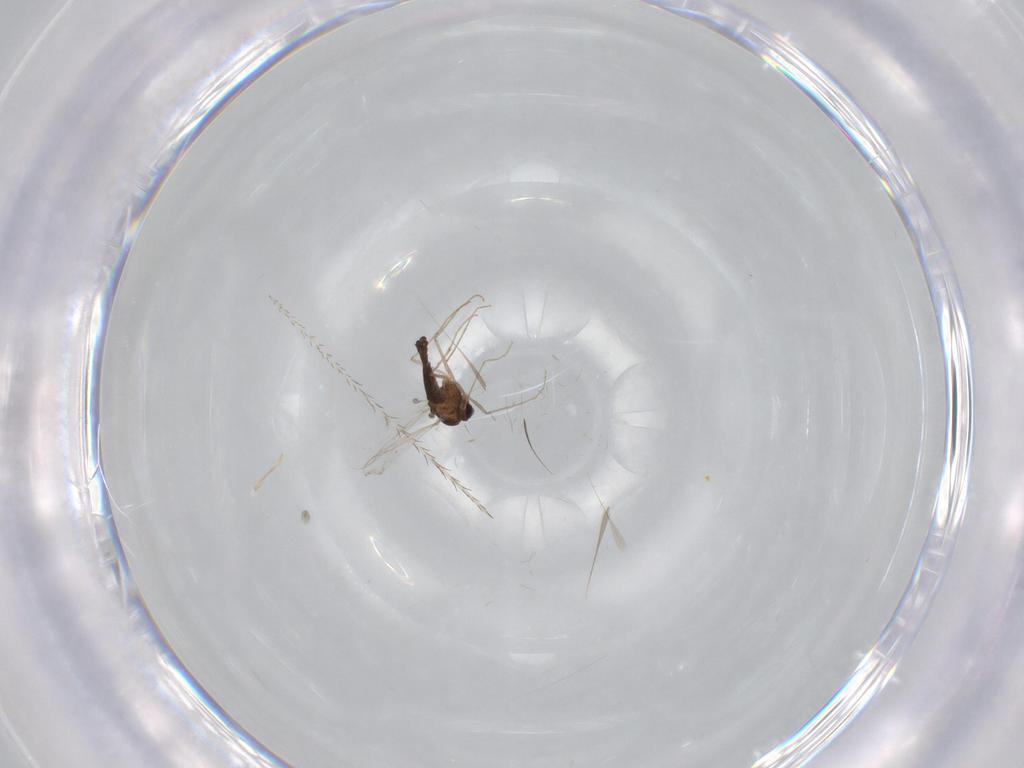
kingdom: Animalia
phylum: Arthropoda
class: Insecta
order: Diptera
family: Chironomidae
